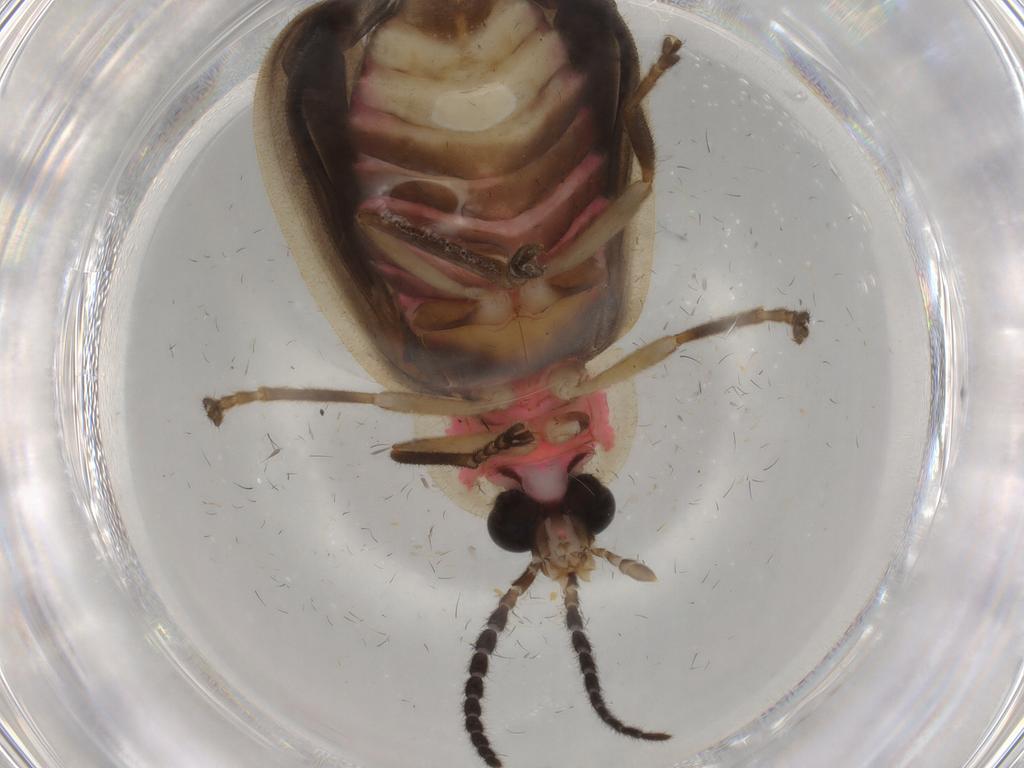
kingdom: Animalia
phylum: Arthropoda
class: Insecta
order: Coleoptera
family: Lampyridae
